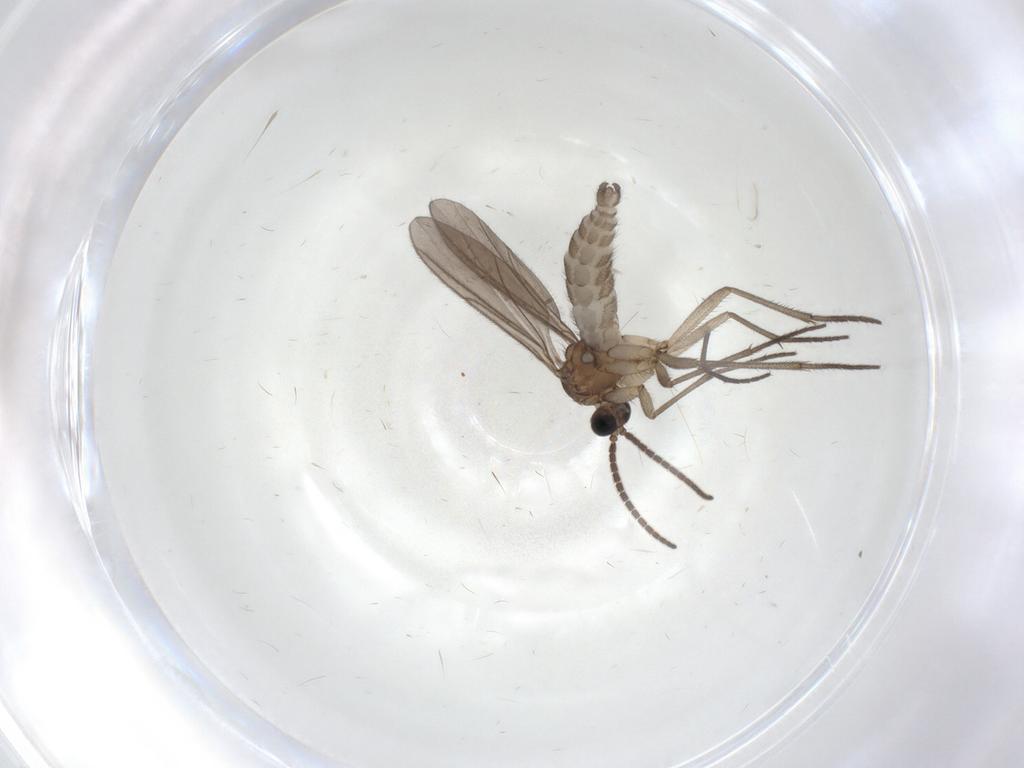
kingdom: Animalia
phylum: Arthropoda
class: Insecta
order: Diptera
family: Sciaridae
